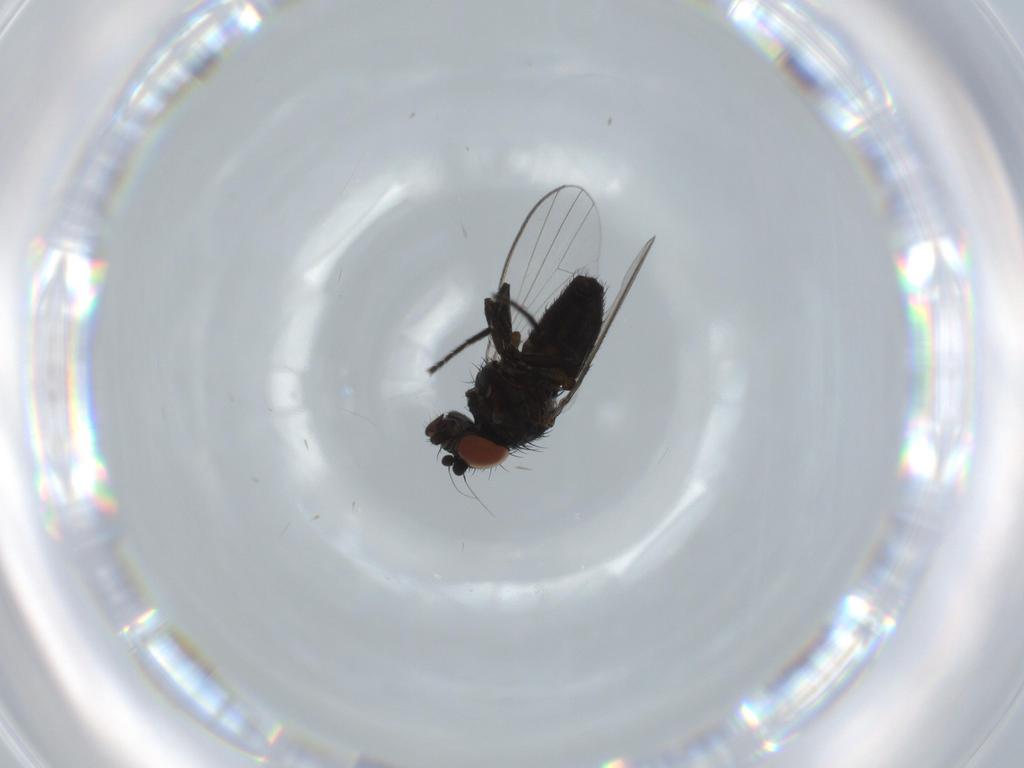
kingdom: Animalia
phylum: Arthropoda
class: Insecta
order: Diptera
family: Milichiidae
